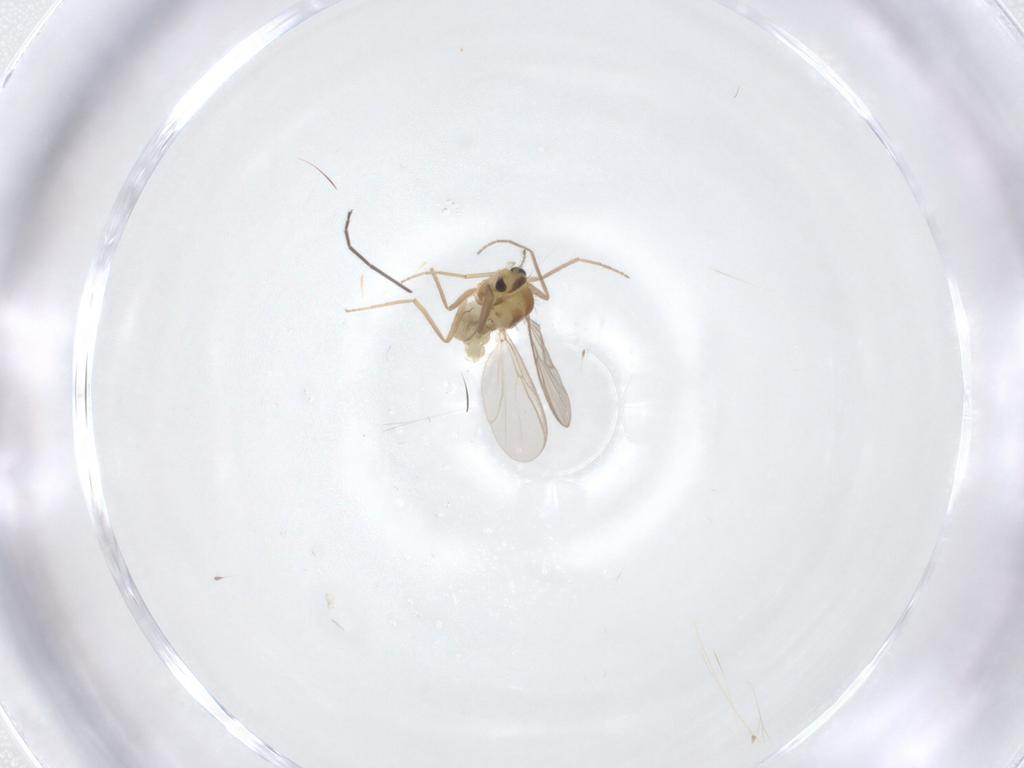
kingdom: Animalia
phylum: Arthropoda
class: Insecta
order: Diptera
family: Chironomidae
